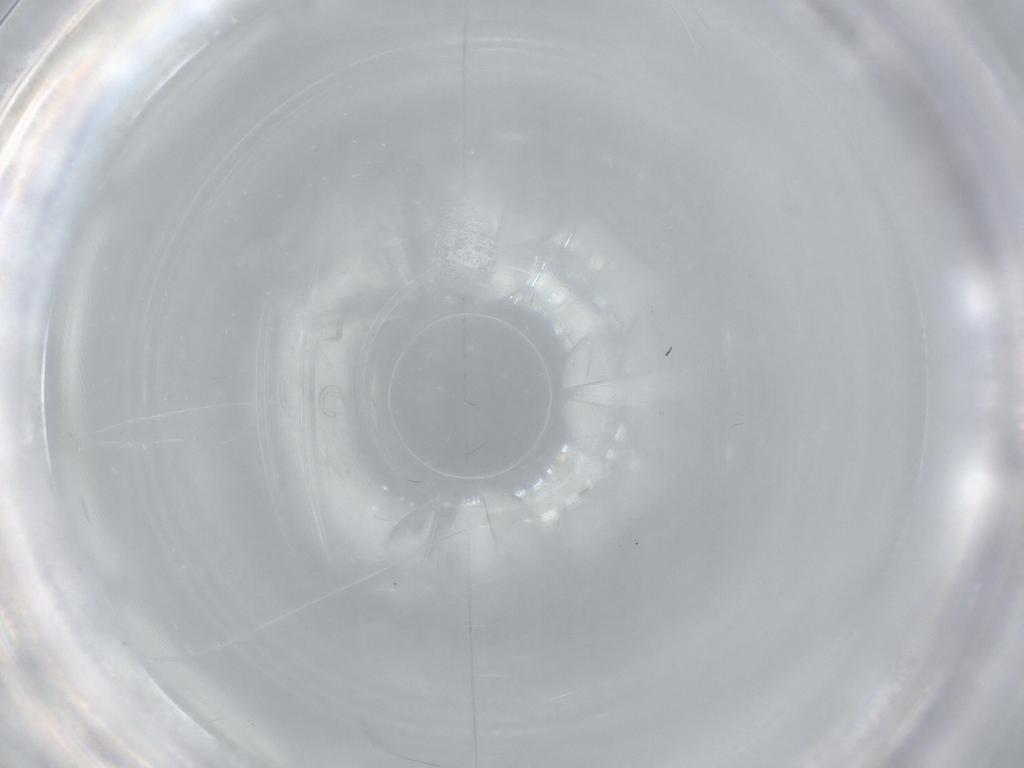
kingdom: Animalia
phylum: Arthropoda
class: Insecta
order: Blattodea
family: Blaberidae
